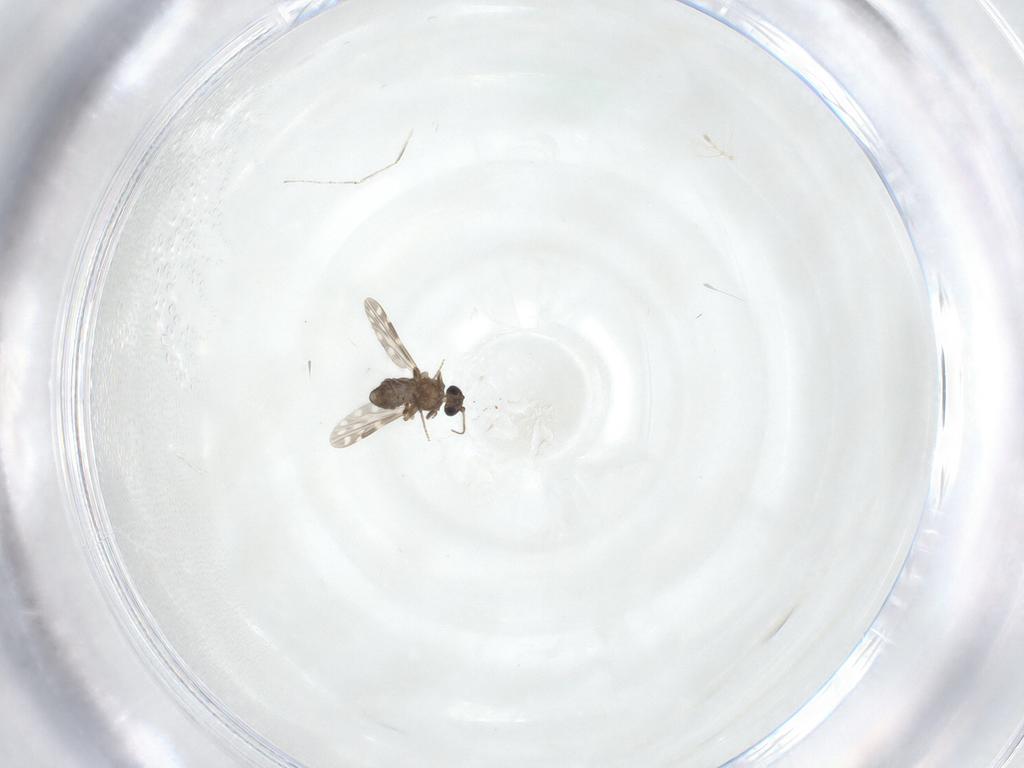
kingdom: Animalia
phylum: Arthropoda
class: Insecta
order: Diptera
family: Cecidomyiidae
